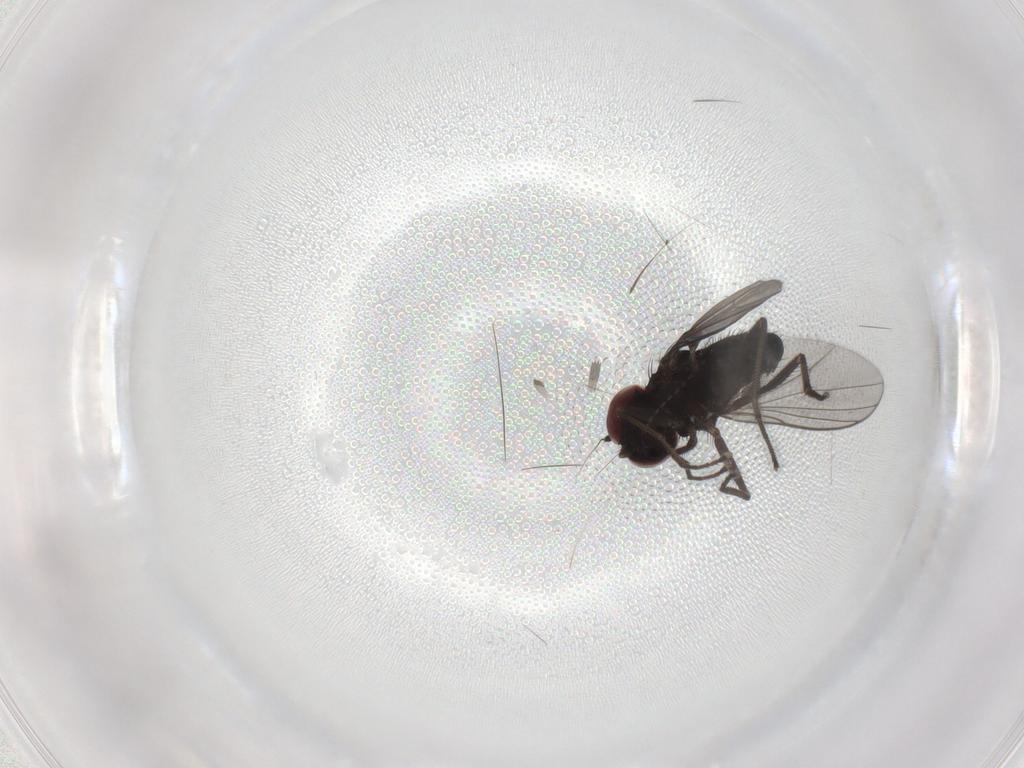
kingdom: Animalia
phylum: Arthropoda
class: Insecta
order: Diptera
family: Dolichopodidae
